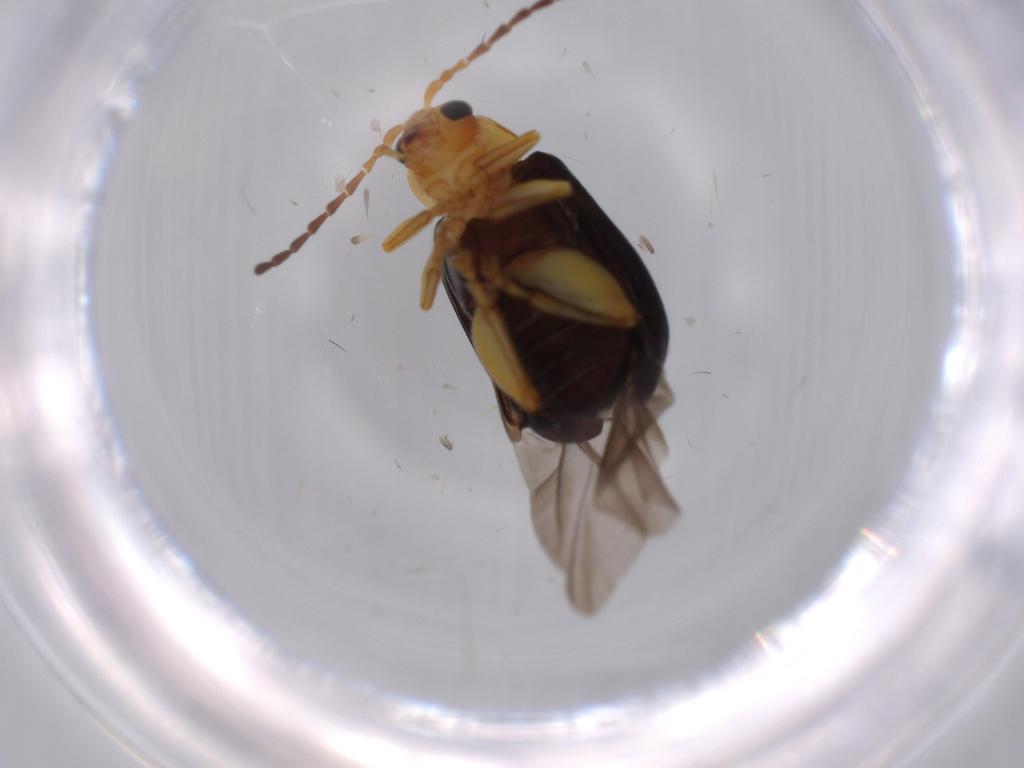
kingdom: Animalia
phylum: Arthropoda
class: Insecta
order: Coleoptera
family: Chrysomelidae
